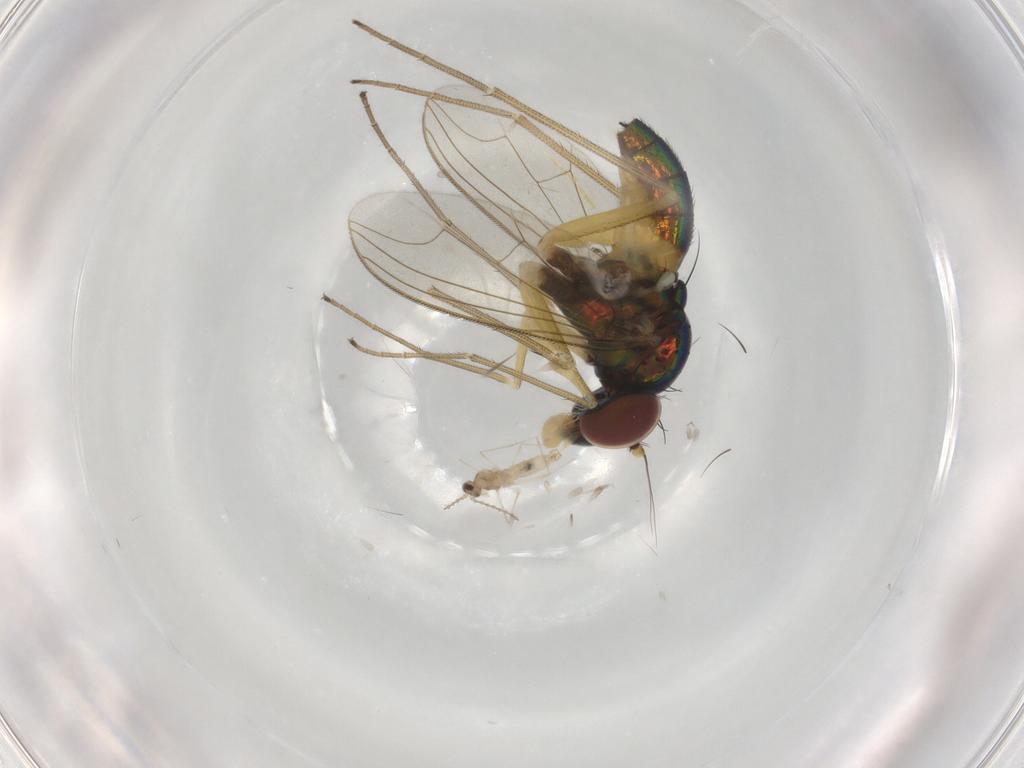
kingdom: Animalia
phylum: Arthropoda
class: Insecta
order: Diptera
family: Dolichopodidae
